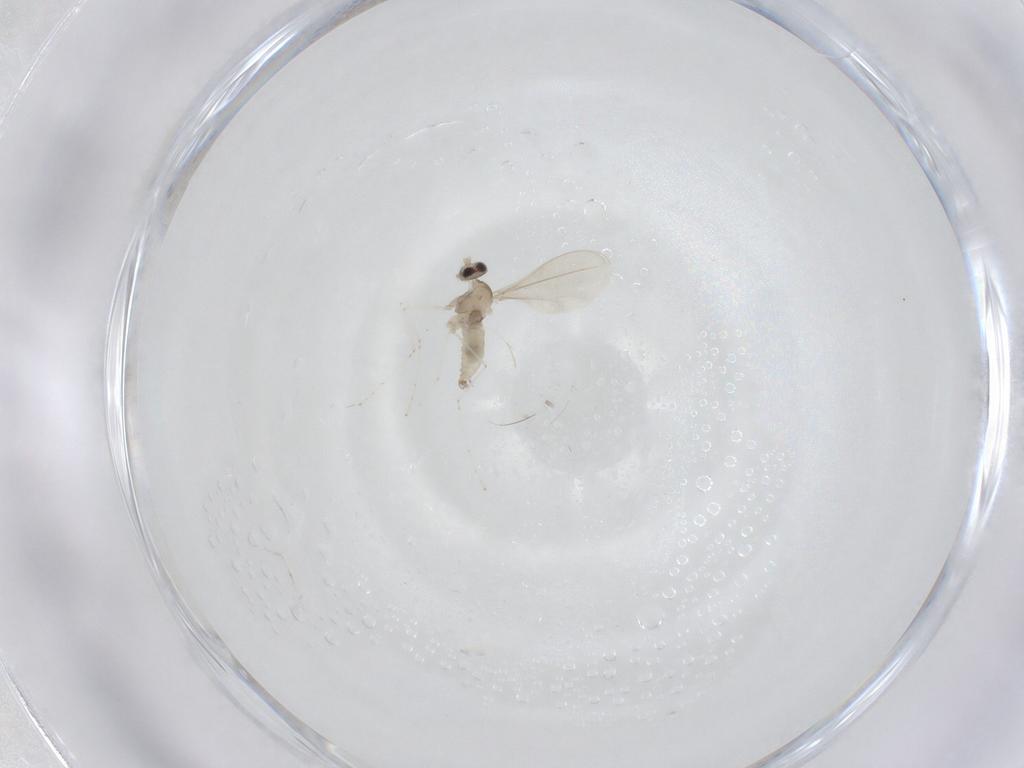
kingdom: Animalia
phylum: Arthropoda
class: Insecta
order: Diptera
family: Cecidomyiidae
